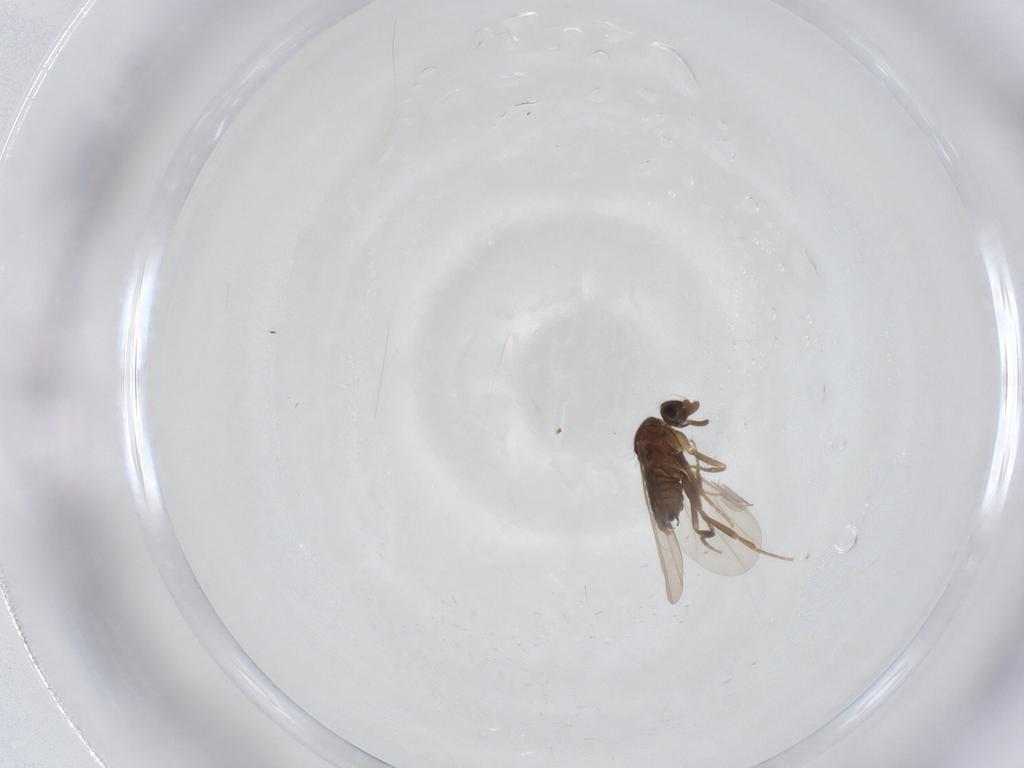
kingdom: Animalia
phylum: Arthropoda
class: Insecta
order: Diptera
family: Phoridae
